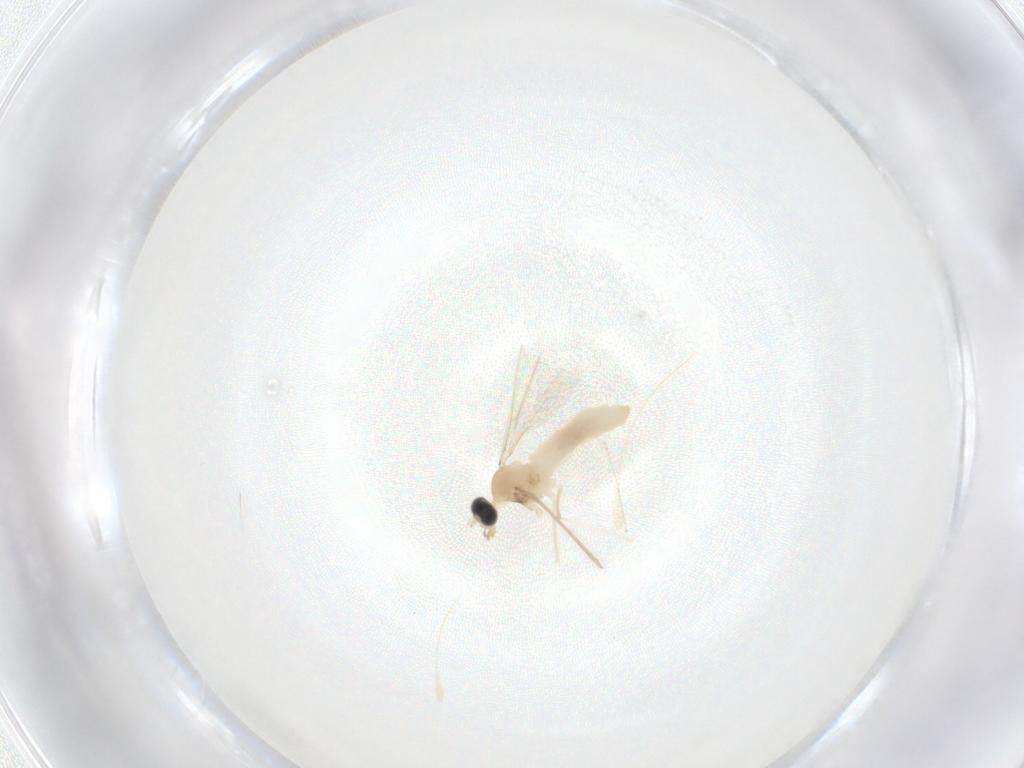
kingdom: Animalia
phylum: Arthropoda
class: Insecta
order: Diptera
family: Cecidomyiidae
